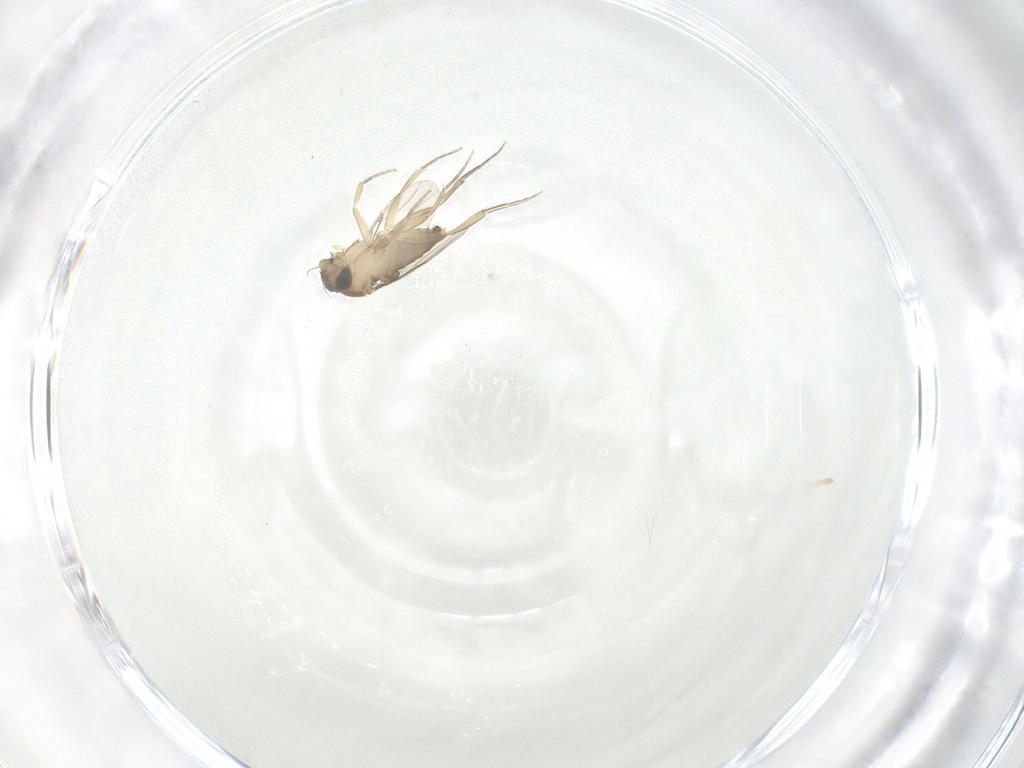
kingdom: Animalia
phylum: Arthropoda
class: Insecta
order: Diptera
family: Phoridae
